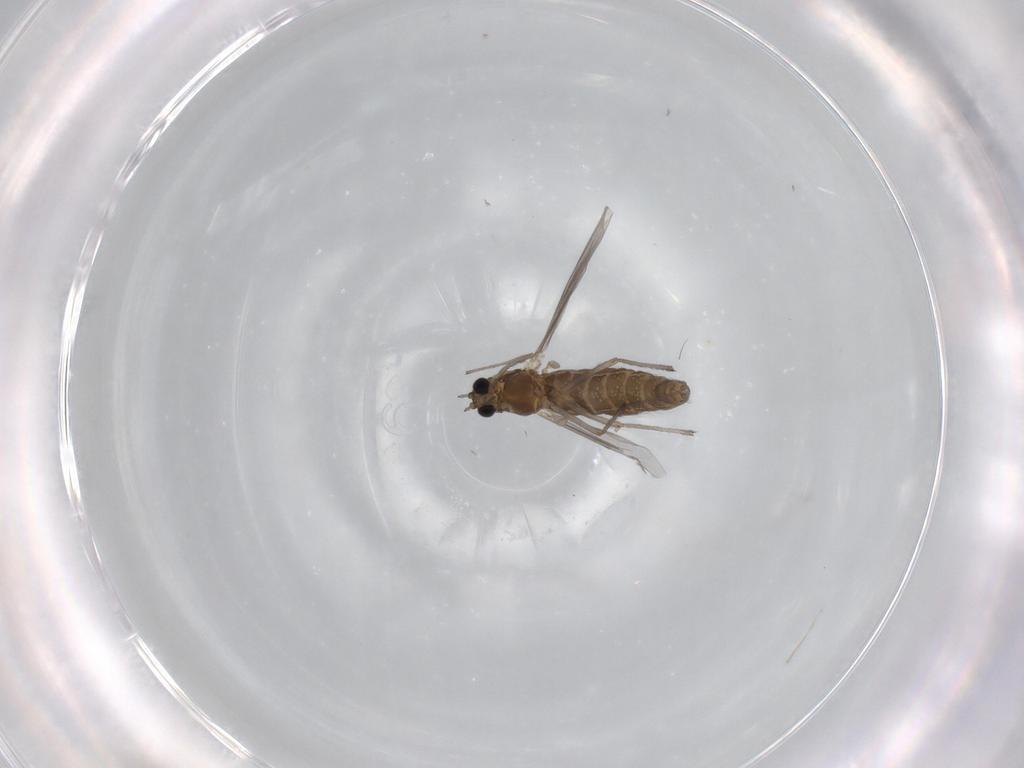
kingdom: Animalia
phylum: Arthropoda
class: Insecta
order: Diptera
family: Chironomidae
